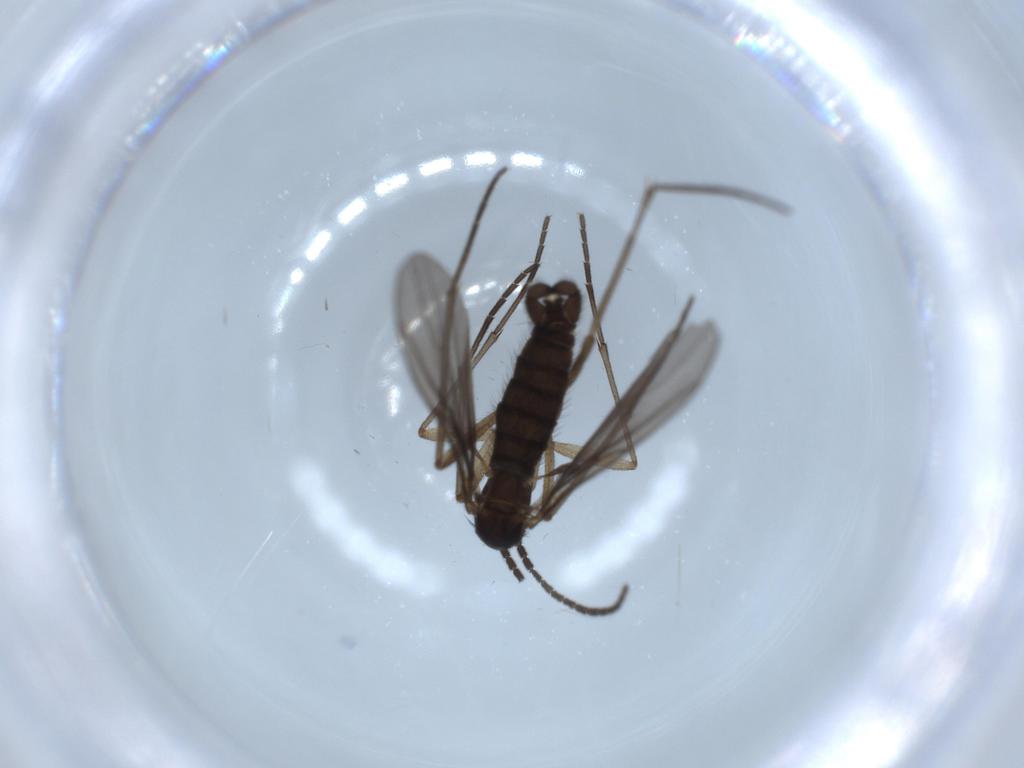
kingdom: Animalia
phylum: Arthropoda
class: Insecta
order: Diptera
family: Sciaridae
